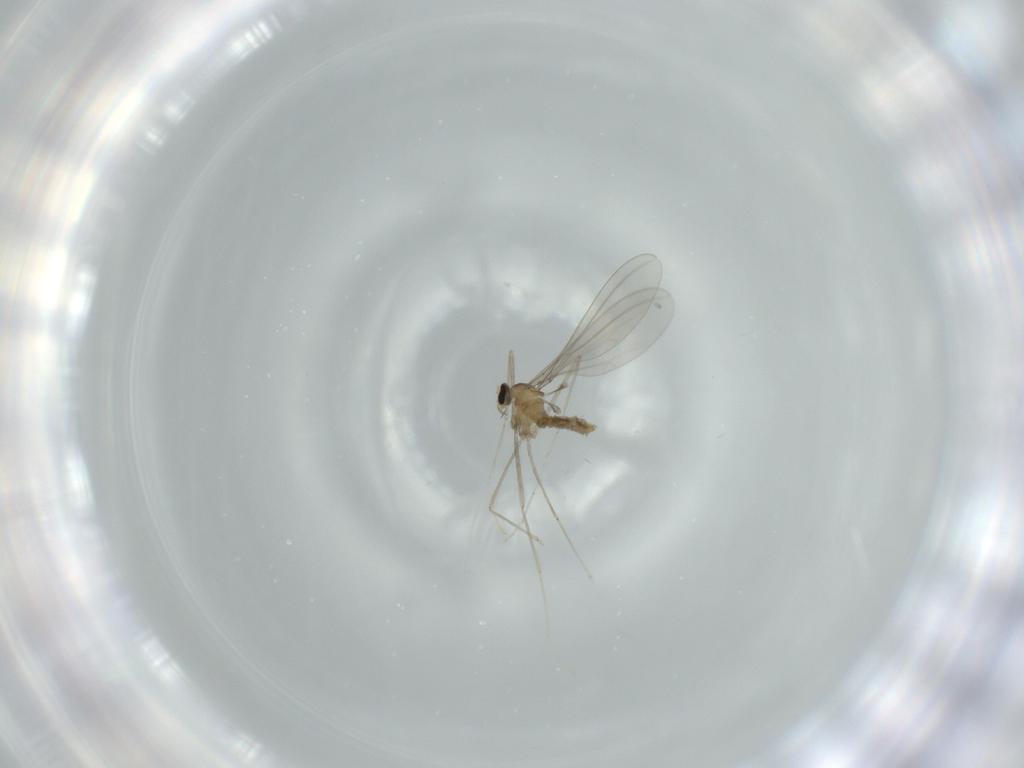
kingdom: Animalia
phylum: Arthropoda
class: Insecta
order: Diptera
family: Cecidomyiidae
